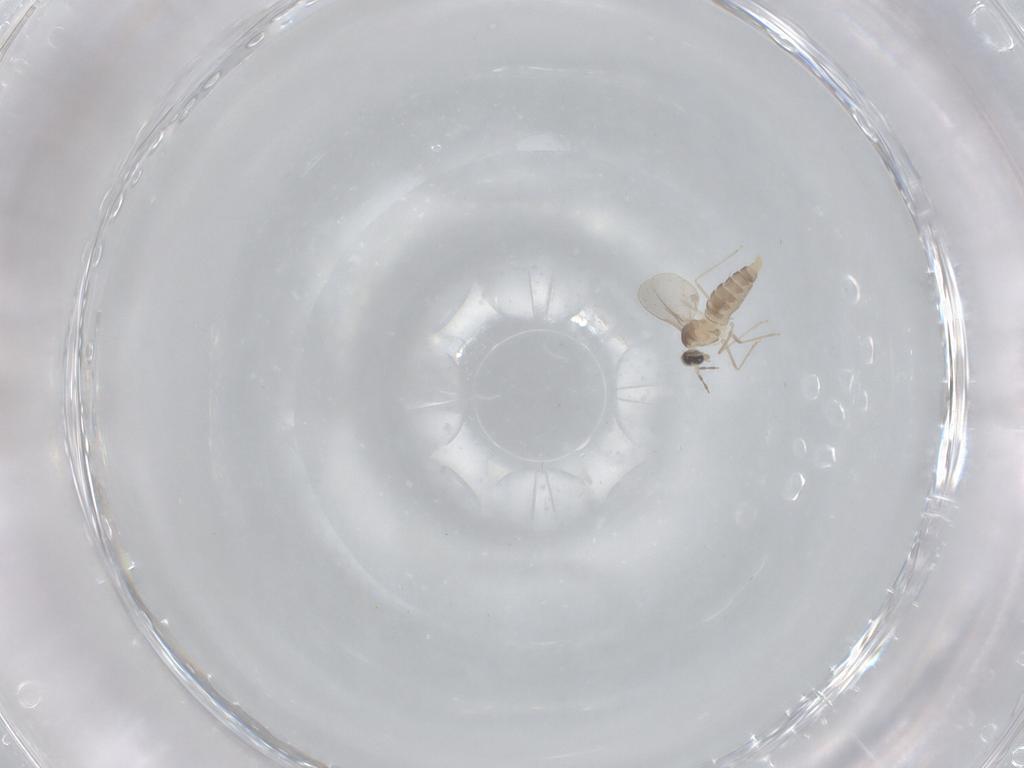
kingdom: Animalia
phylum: Arthropoda
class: Insecta
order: Diptera
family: Cecidomyiidae
